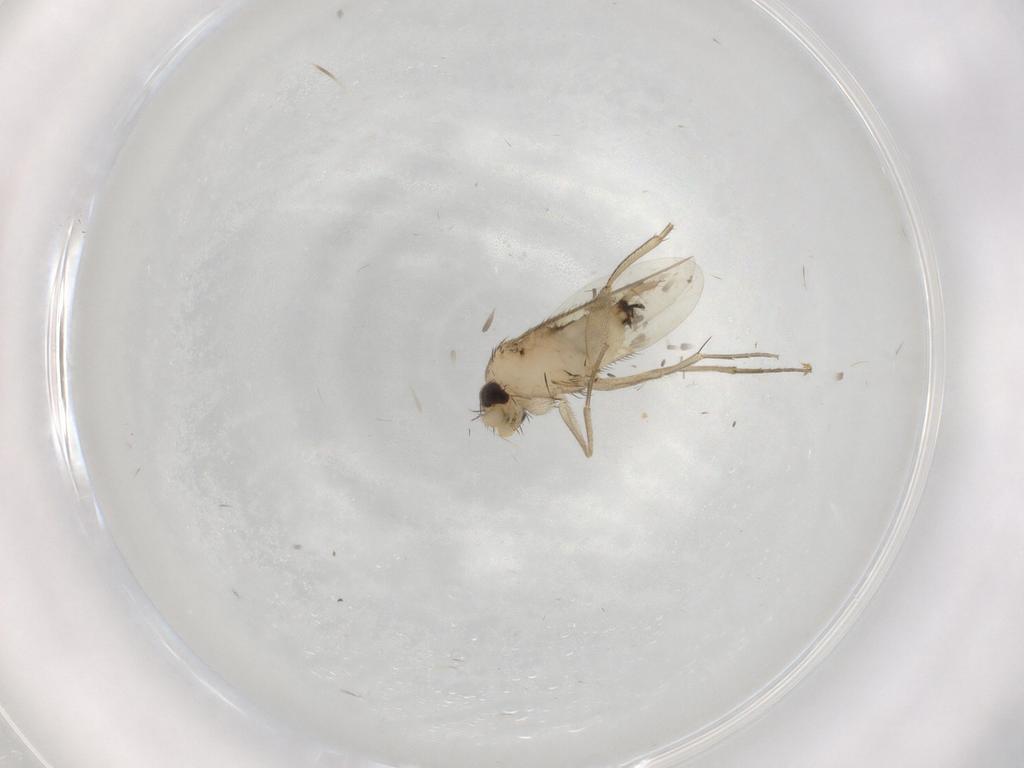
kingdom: Animalia
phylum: Arthropoda
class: Insecta
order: Diptera
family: Phoridae
